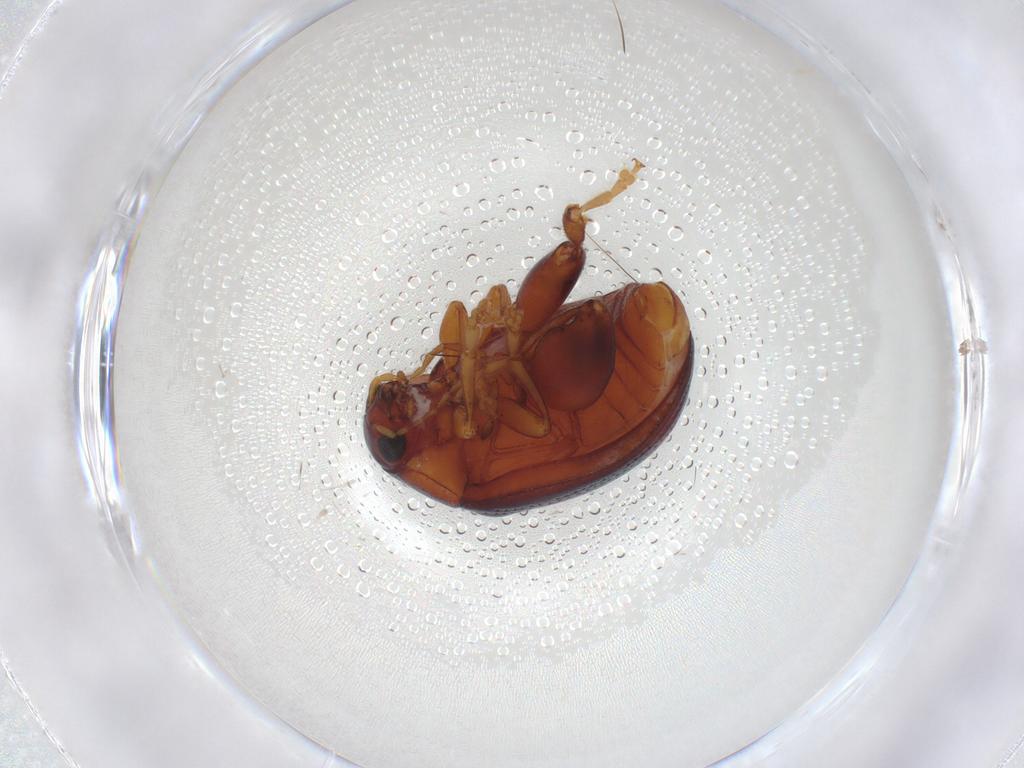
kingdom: Animalia
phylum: Arthropoda
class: Insecta
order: Coleoptera
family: Chrysomelidae
